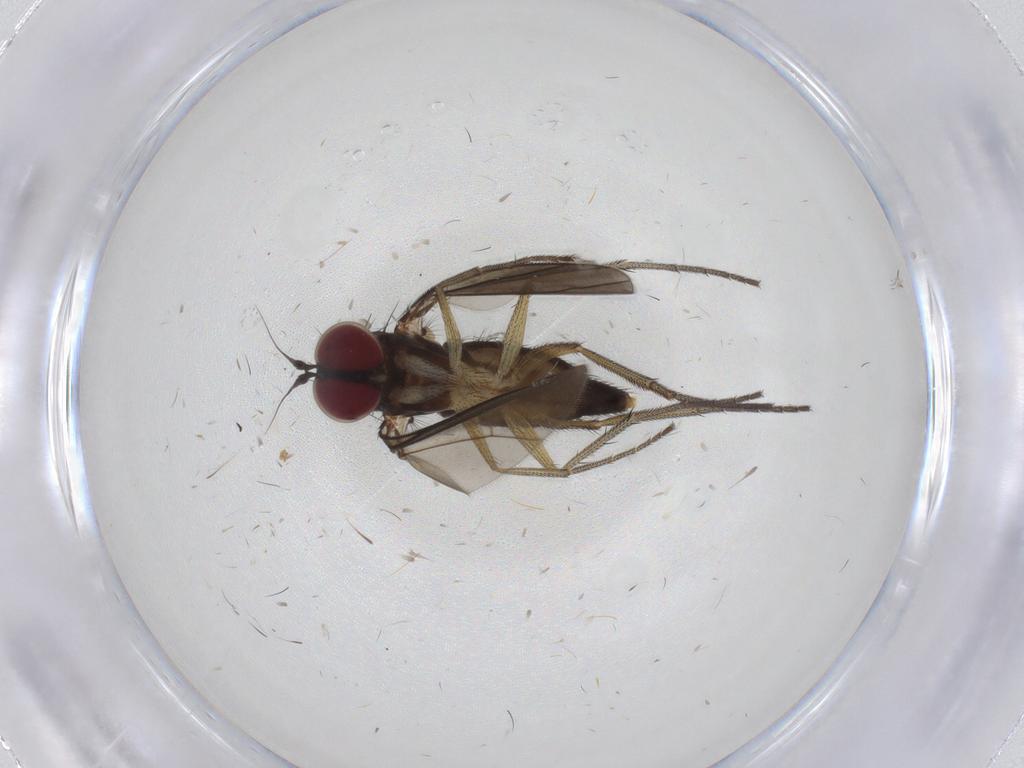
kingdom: Animalia
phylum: Arthropoda
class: Insecta
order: Diptera
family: Dolichopodidae
